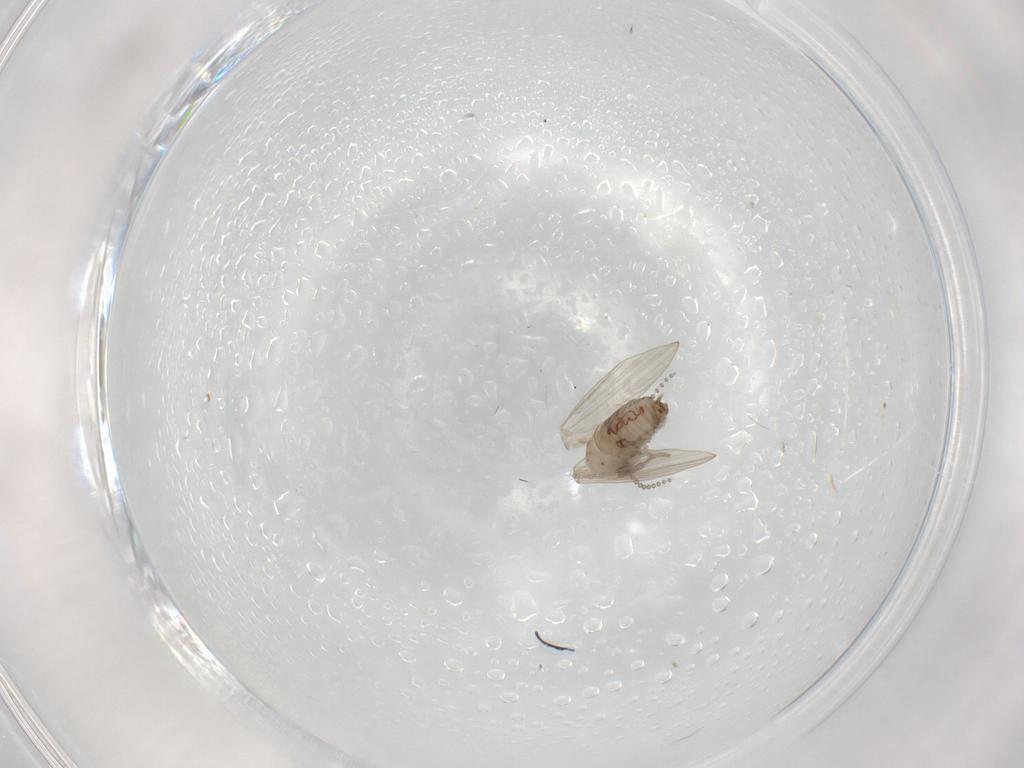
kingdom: Animalia
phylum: Arthropoda
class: Insecta
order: Diptera
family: Psychodidae
